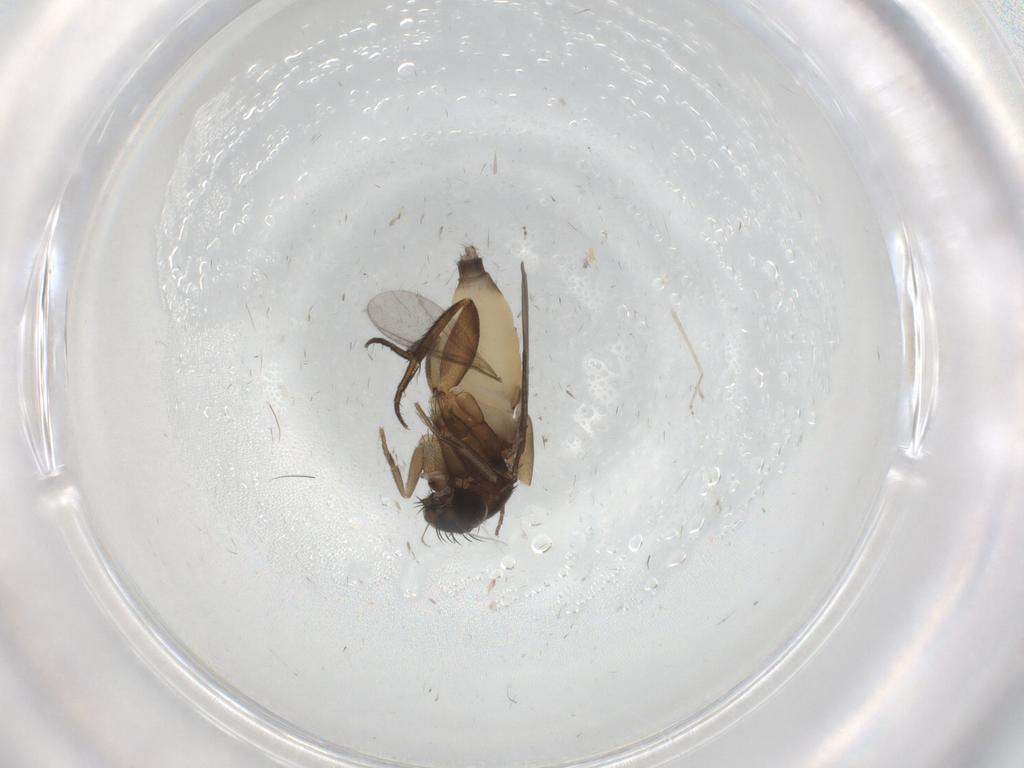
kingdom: Animalia
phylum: Arthropoda
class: Insecta
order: Diptera
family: Phoridae
